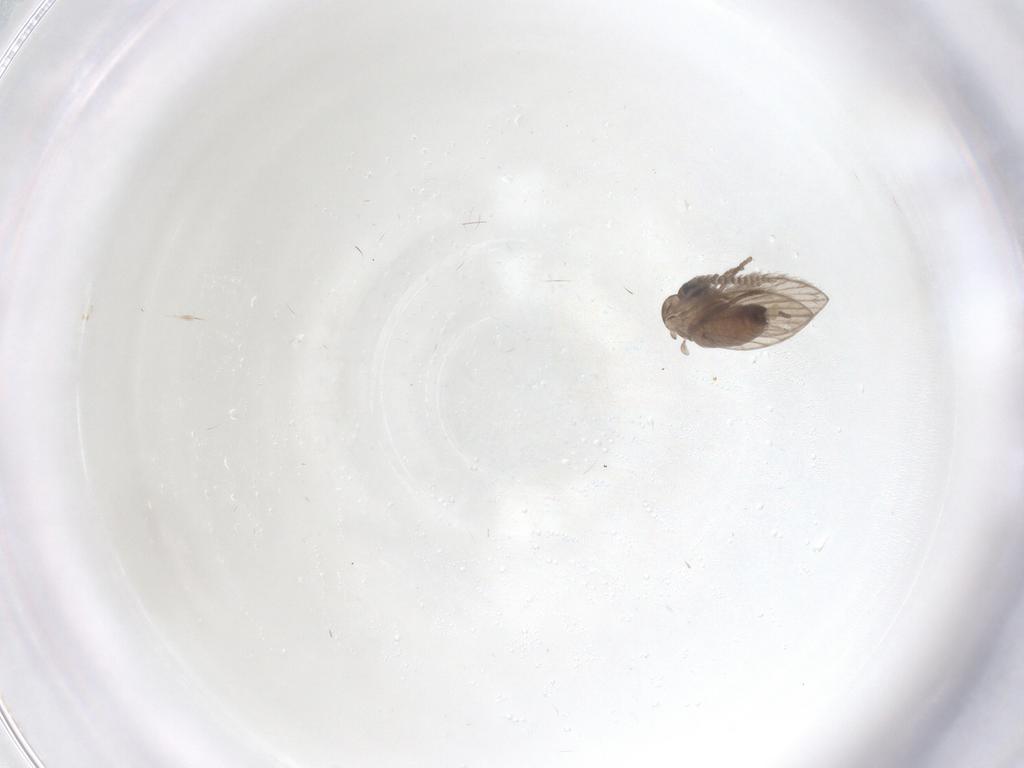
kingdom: Animalia
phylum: Arthropoda
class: Insecta
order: Diptera
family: Psychodidae
